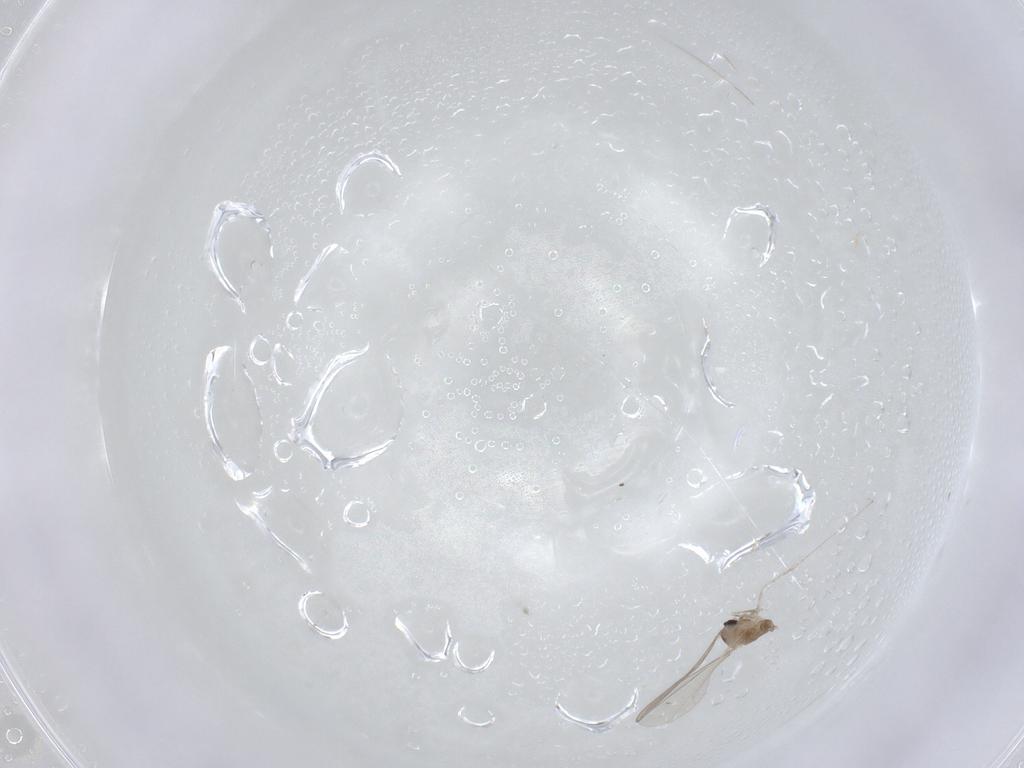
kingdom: Animalia
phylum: Arthropoda
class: Insecta
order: Diptera
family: Cecidomyiidae
